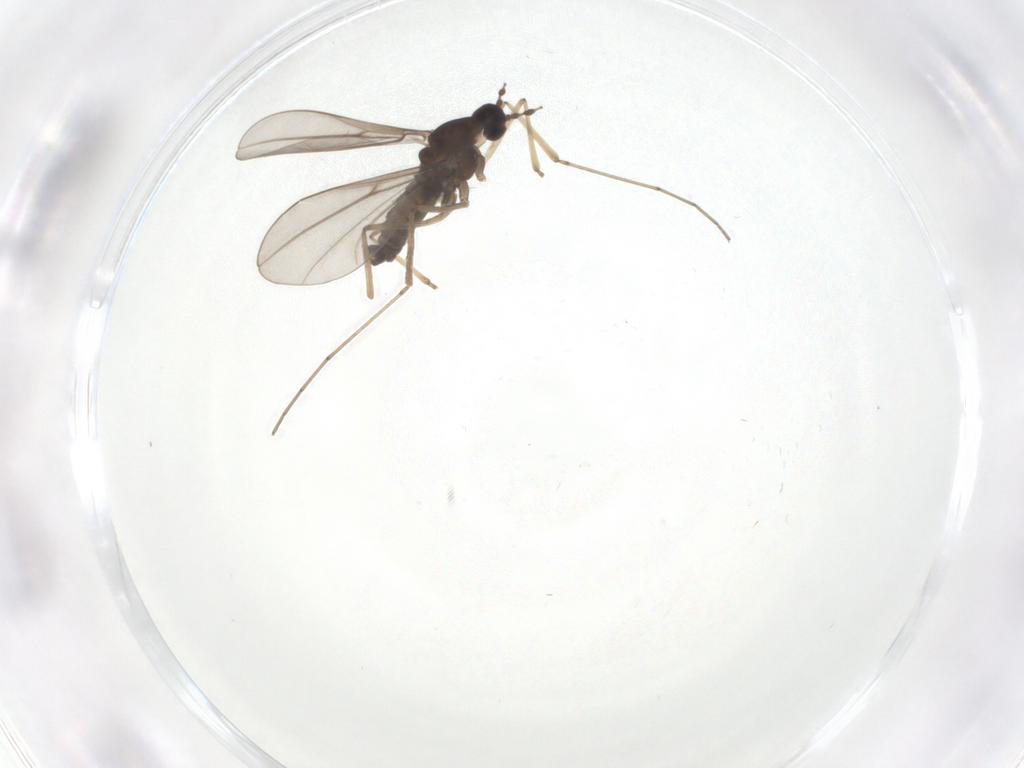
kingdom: Animalia
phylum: Arthropoda
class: Insecta
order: Diptera
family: Cecidomyiidae
